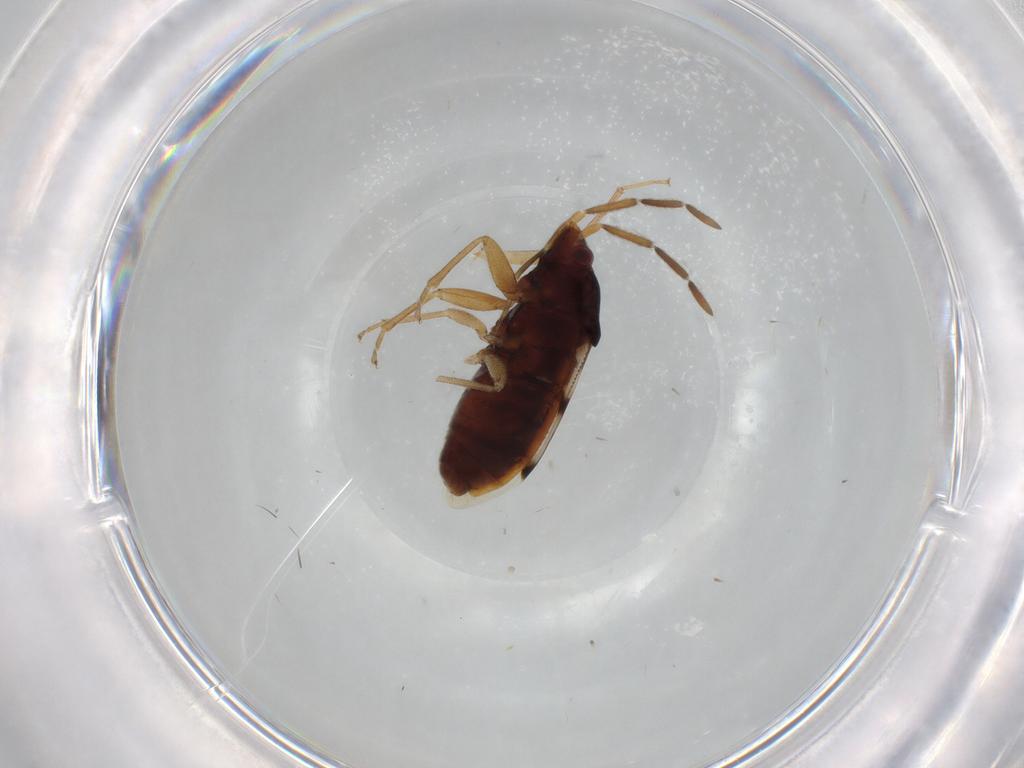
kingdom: Animalia
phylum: Arthropoda
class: Insecta
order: Hemiptera
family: Rhyparochromidae
